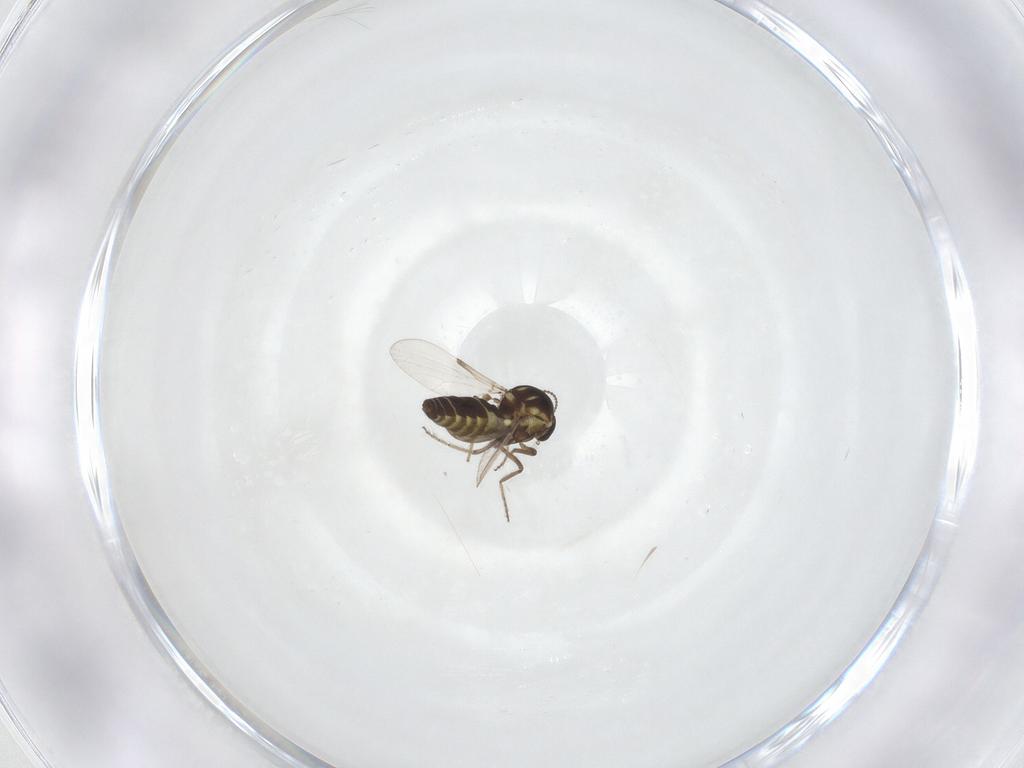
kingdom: Animalia
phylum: Arthropoda
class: Insecta
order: Diptera
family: Ceratopogonidae
